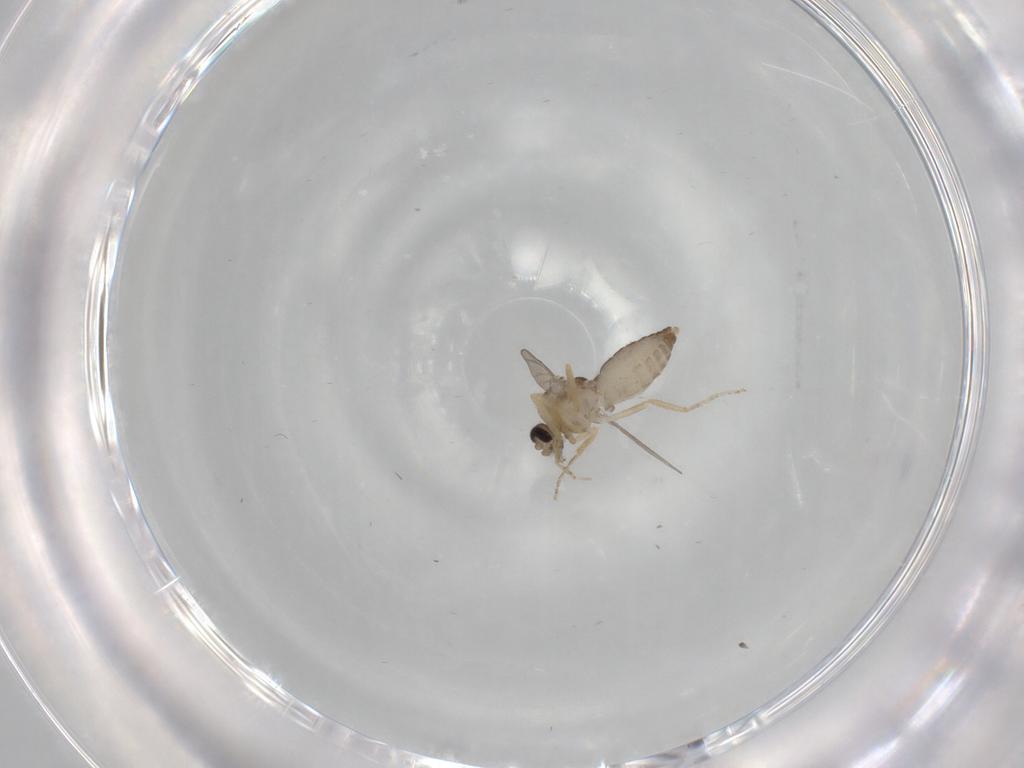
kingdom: Animalia
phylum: Arthropoda
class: Insecta
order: Diptera
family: Ceratopogonidae
